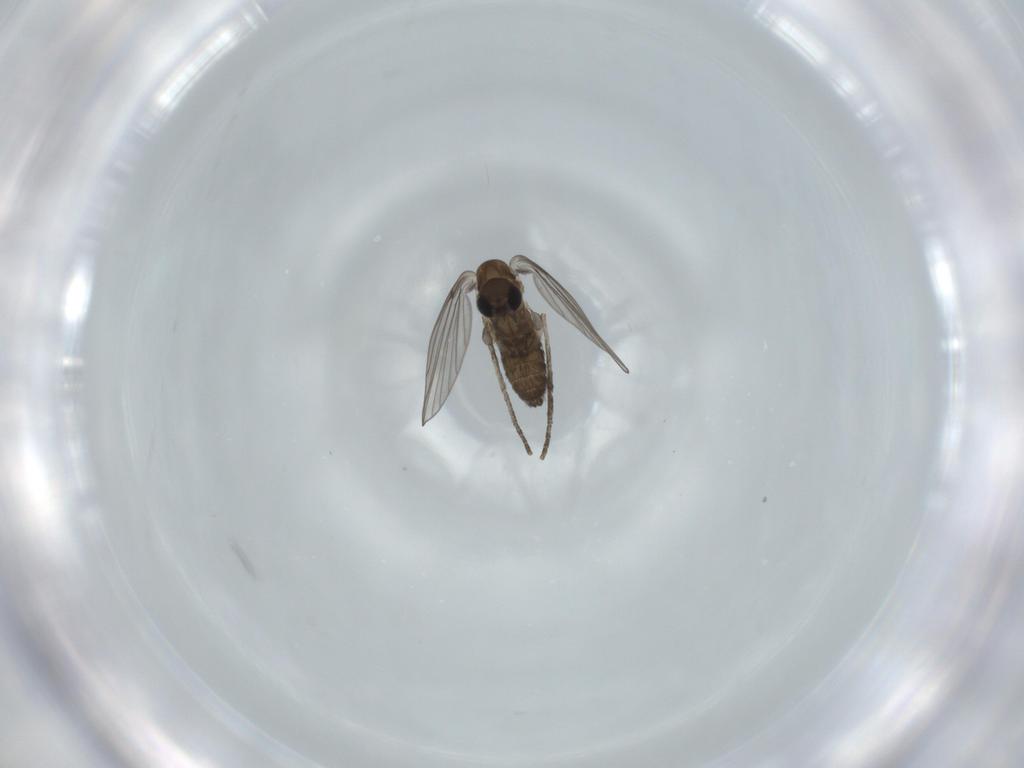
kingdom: Animalia
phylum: Arthropoda
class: Insecta
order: Diptera
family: Psychodidae
